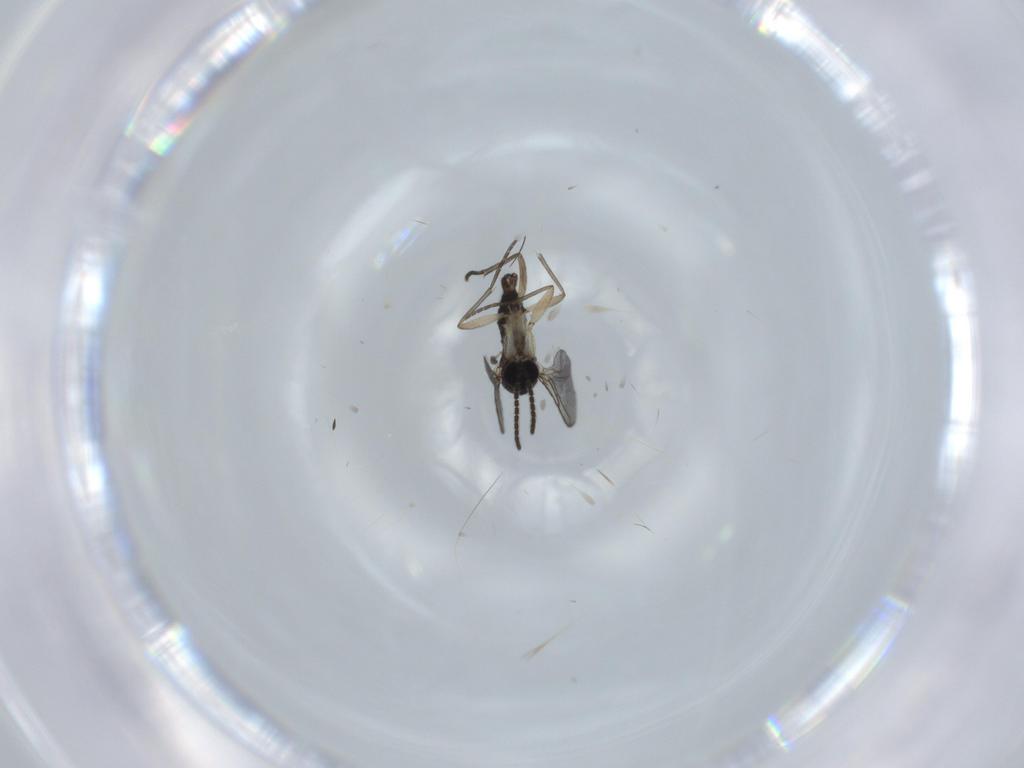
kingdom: Animalia
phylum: Arthropoda
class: Insecta
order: Diptera
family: Sciaridae
